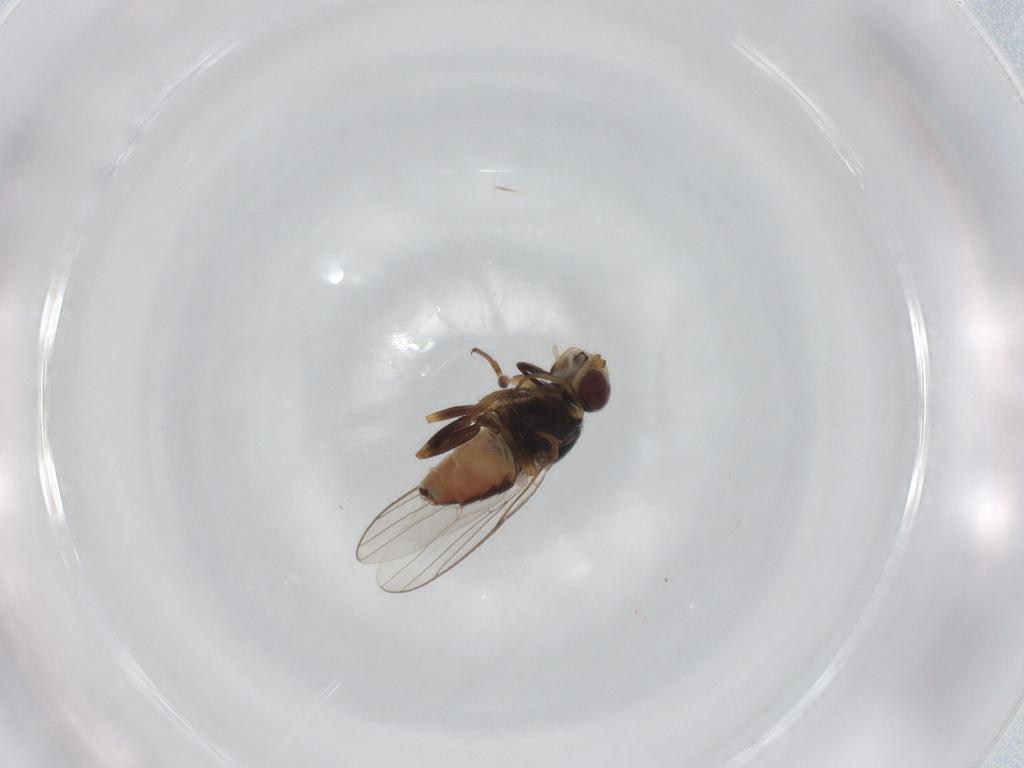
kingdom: Animalia
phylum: Arthropoda
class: Insecta
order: Diptera
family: Chloropidae
